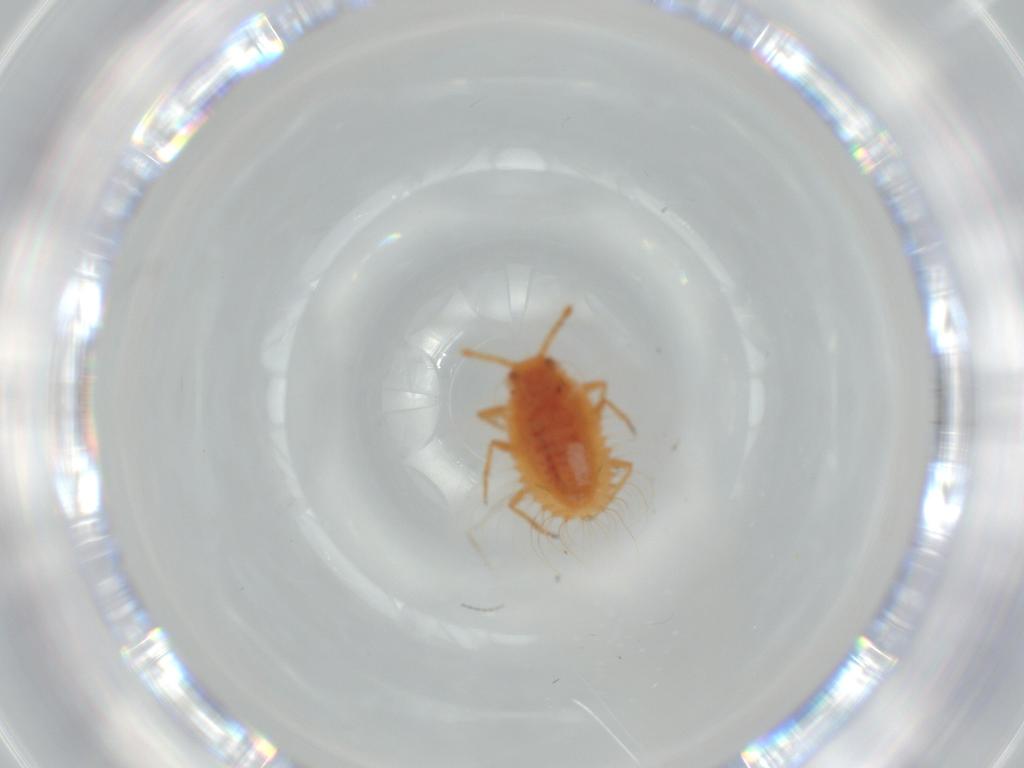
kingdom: Animalia
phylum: Arthropoda
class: Insecta
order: Hemiptera
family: Coccoidea_incertae_sedis
